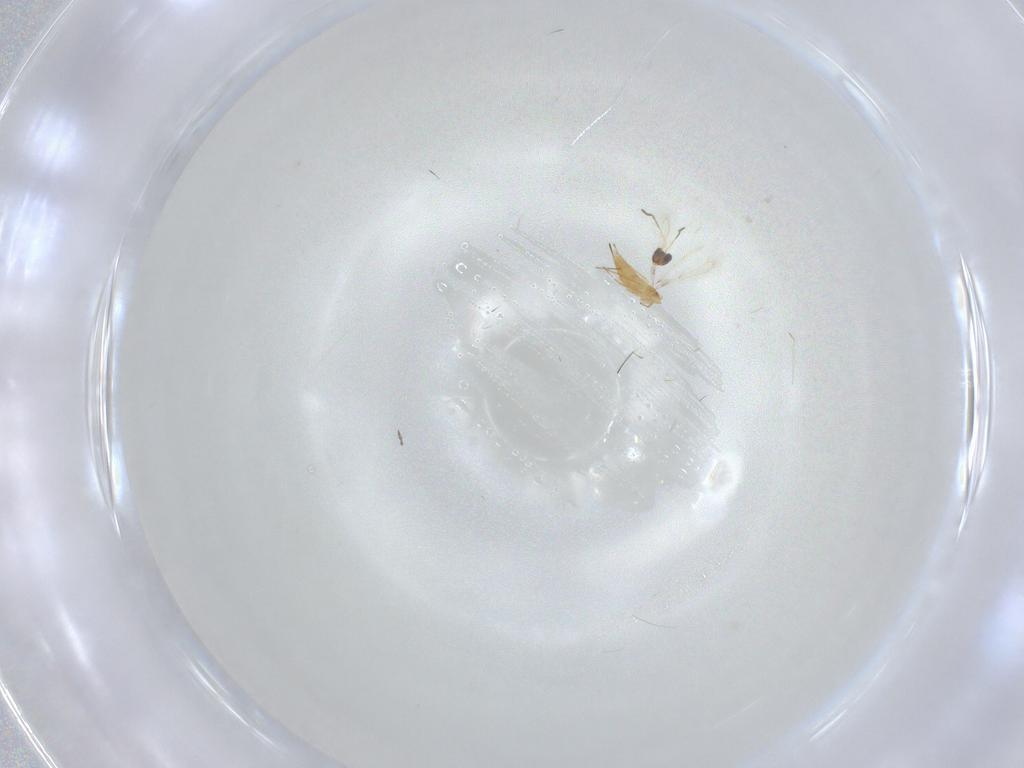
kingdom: Animalia
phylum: Arthropoda
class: Insecta
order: Hymenoptera
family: Mymaridae
